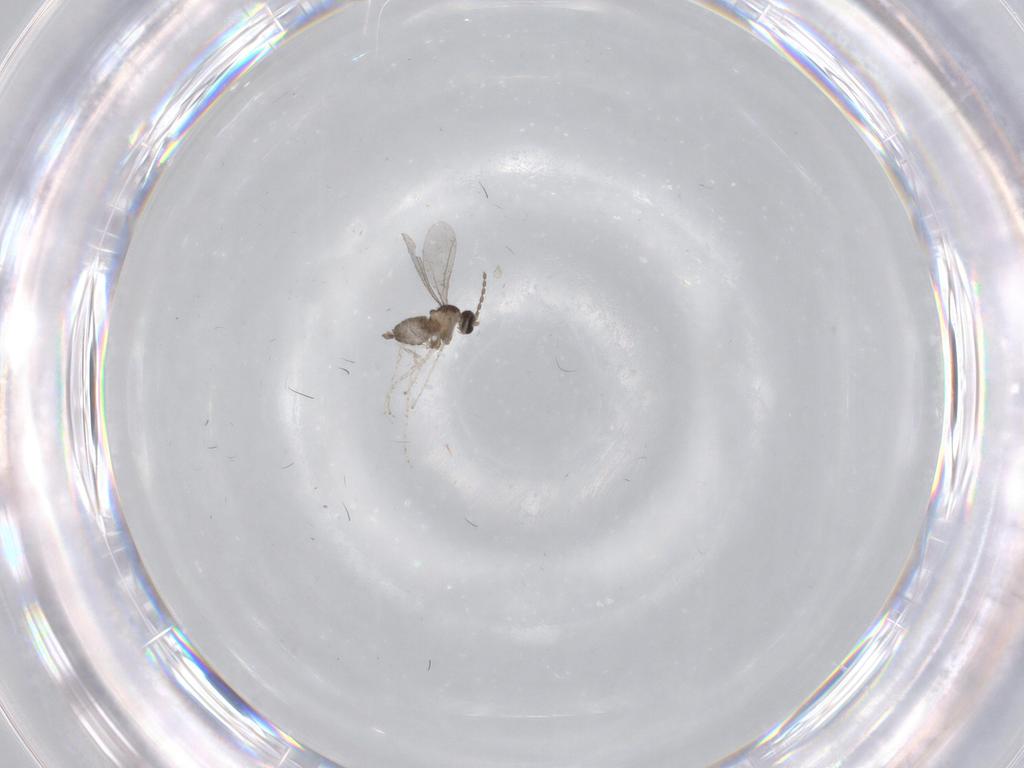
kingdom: Animalia
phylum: Arthropoda
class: Insecta
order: Diptera
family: Cecidomyiidae
